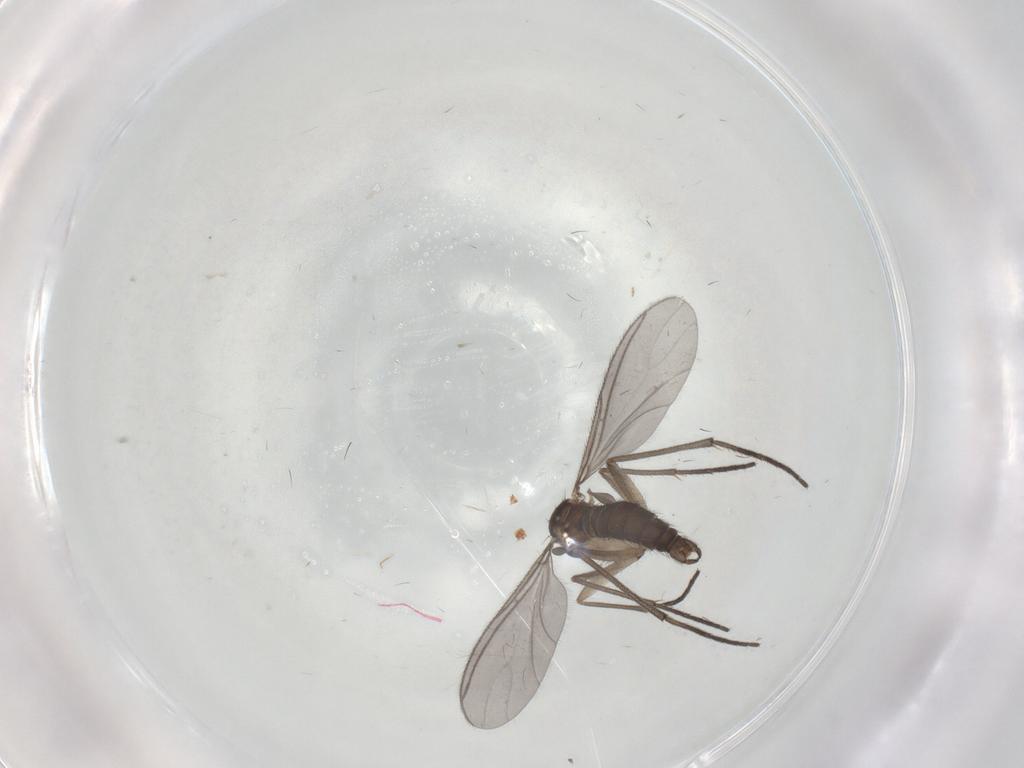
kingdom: Animalia
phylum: Arthropoda
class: Insecta
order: Diptera
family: Sciaridae
